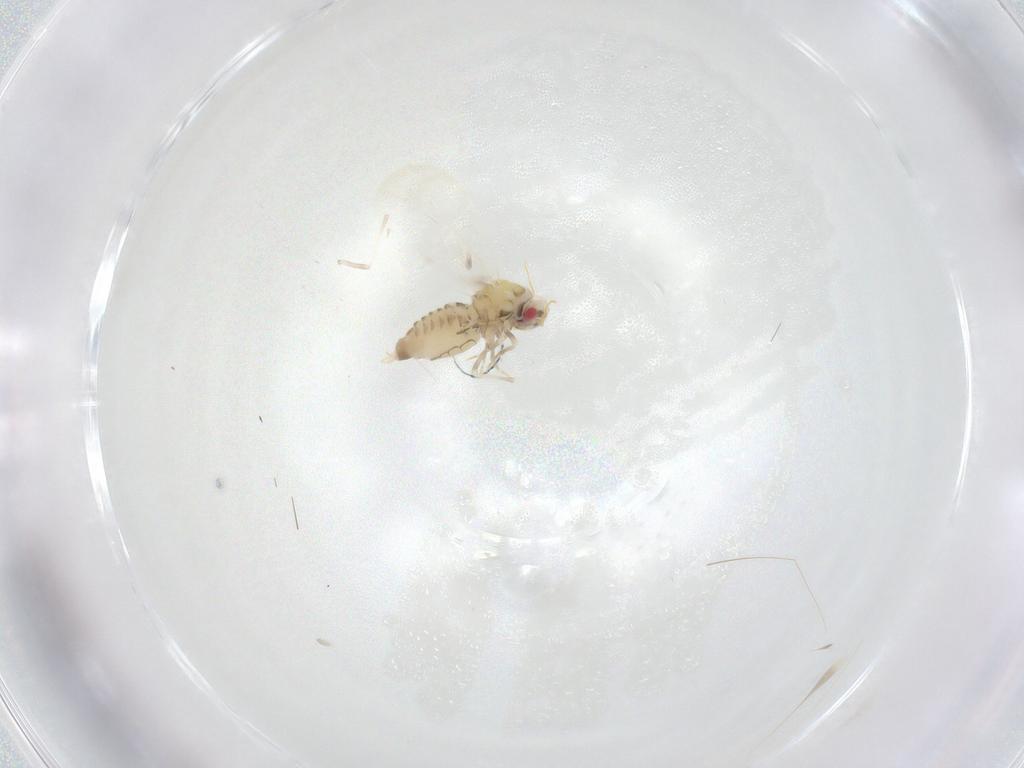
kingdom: Animalia
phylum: Arthropoda
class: Insecta
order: Hemiptera
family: Aleyrodidae
